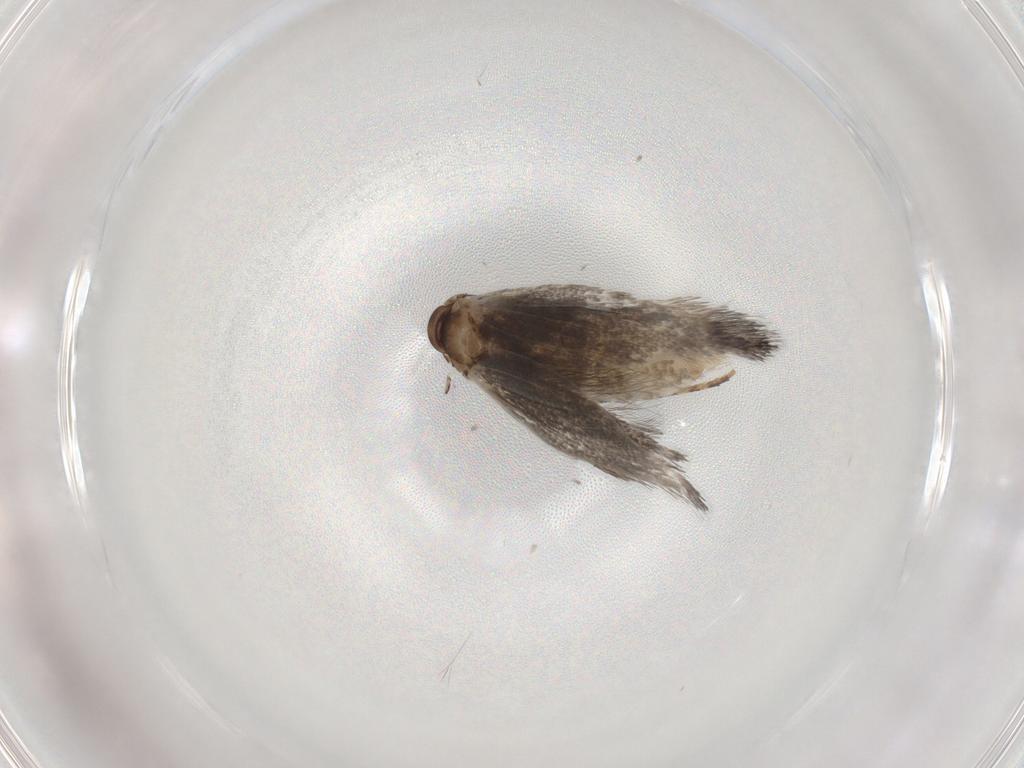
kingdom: Animalia
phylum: Arthropoda
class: Insecta
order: Lepidoptera
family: Elachistidae
